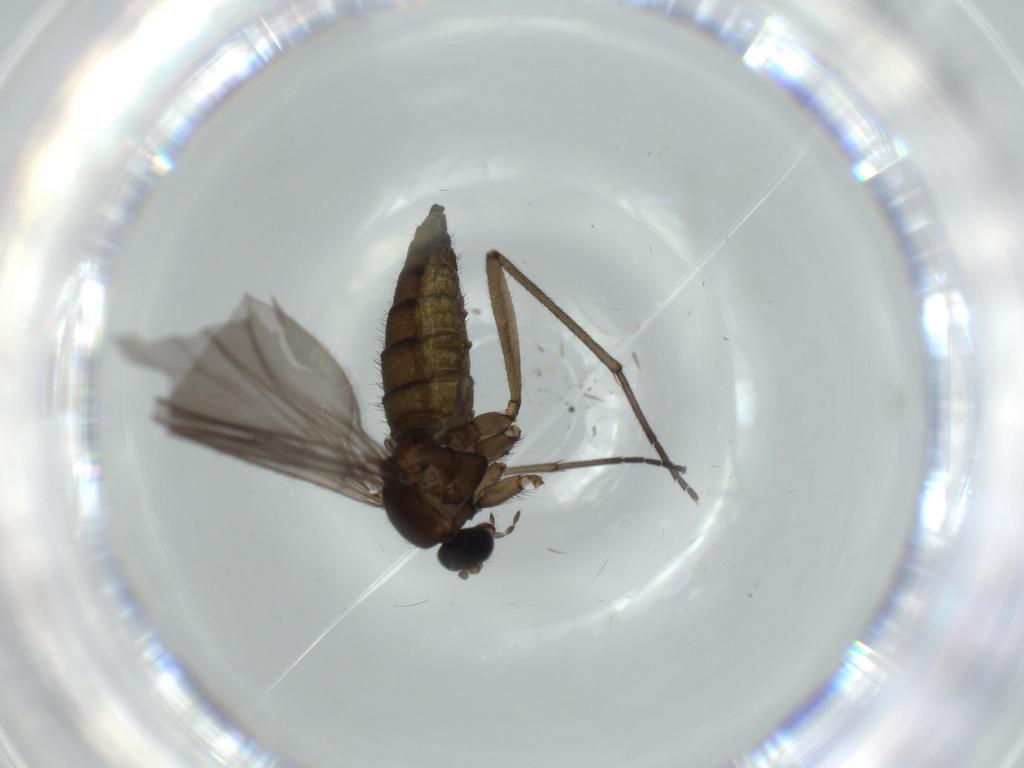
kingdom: Animalia
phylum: Arthropoda
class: Insecta
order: Diptera
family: Sciaridae
